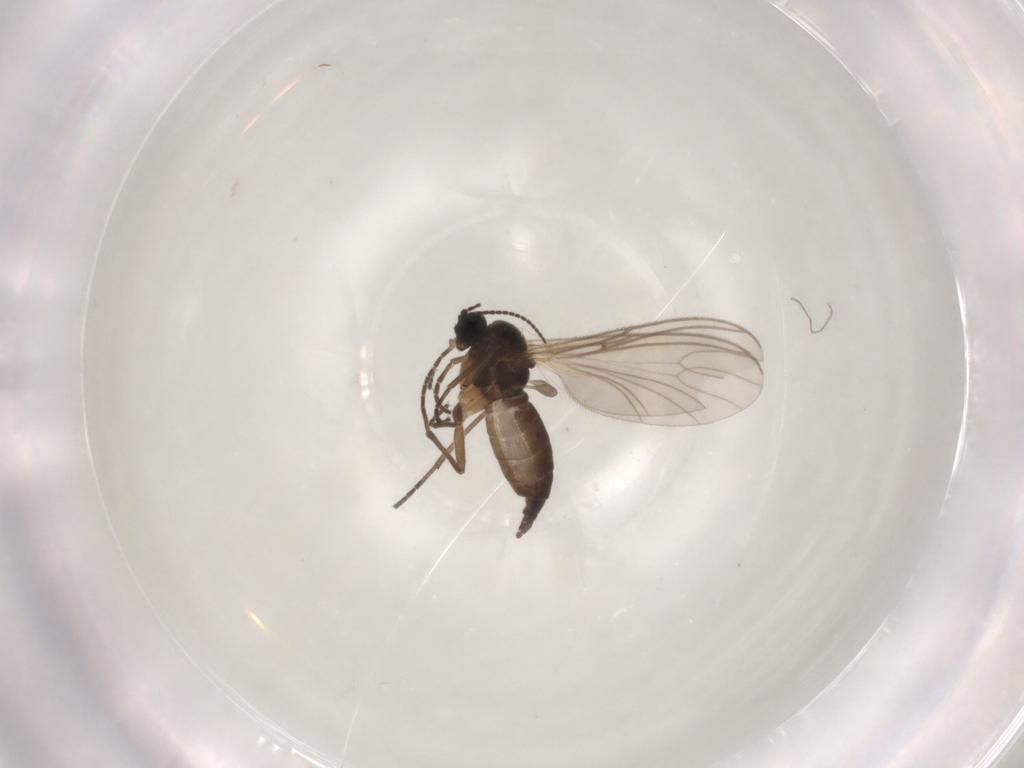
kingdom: Animalia
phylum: Arthropoda
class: Insecta
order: Diptera
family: Sciaridae
